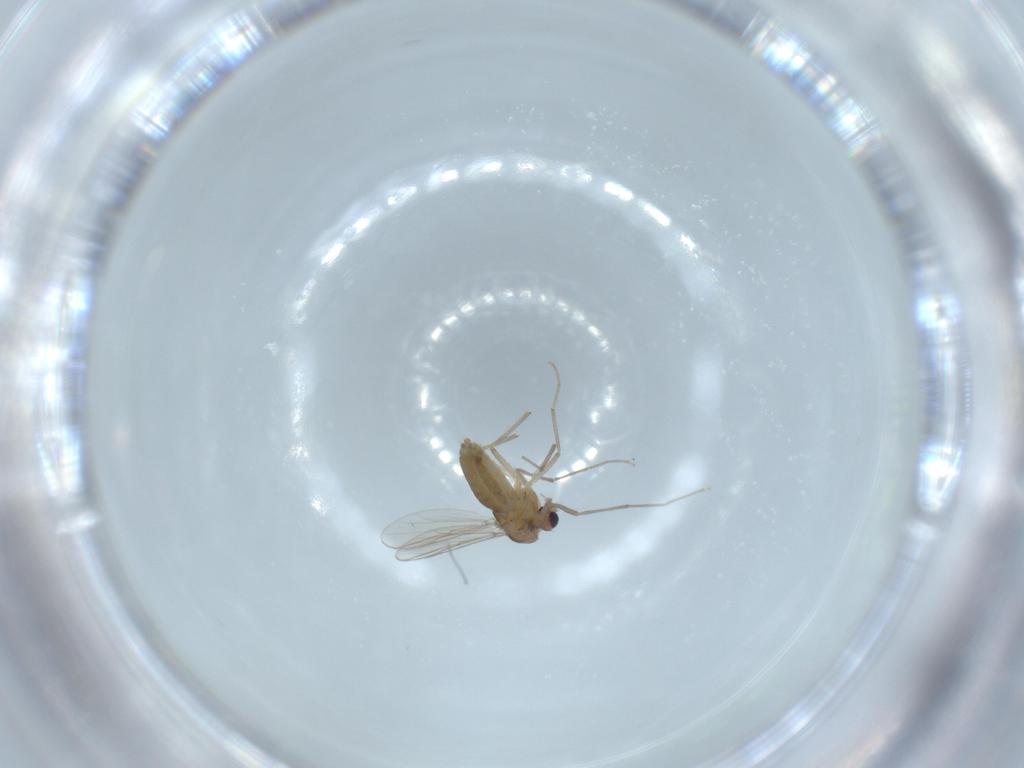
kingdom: Animalia
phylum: Arthropoda
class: Insecta
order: Diptera
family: Chironomidae
